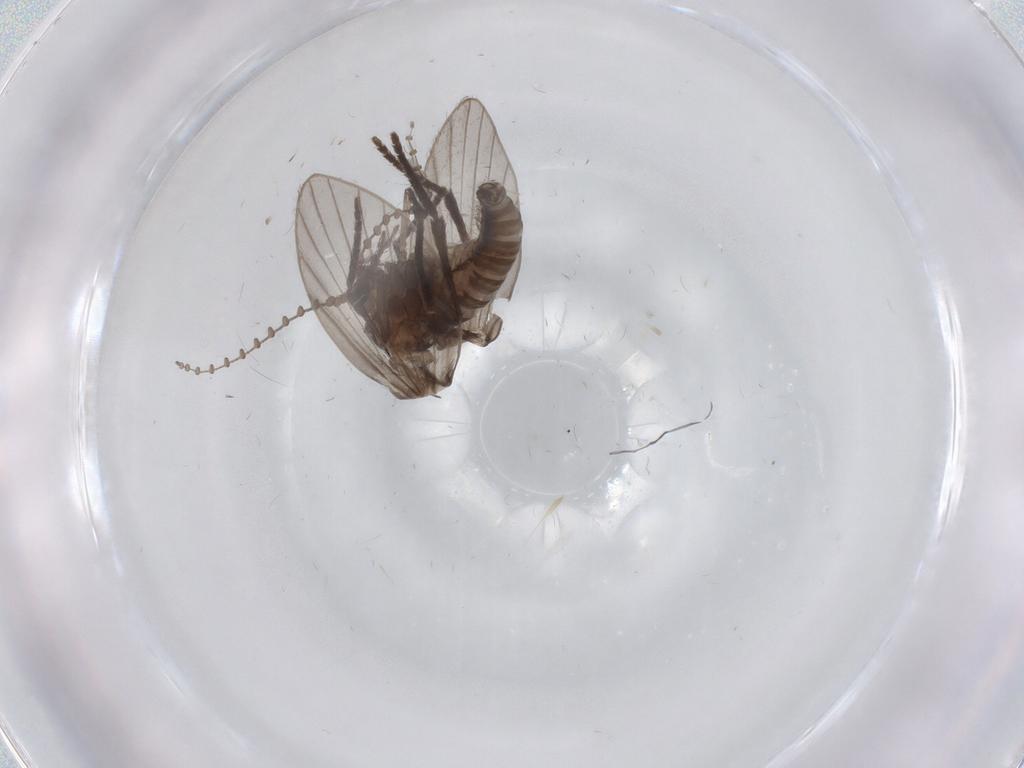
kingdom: Animalia
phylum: Arthropoda
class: Insecta
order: Diptera
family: Psychodidae
